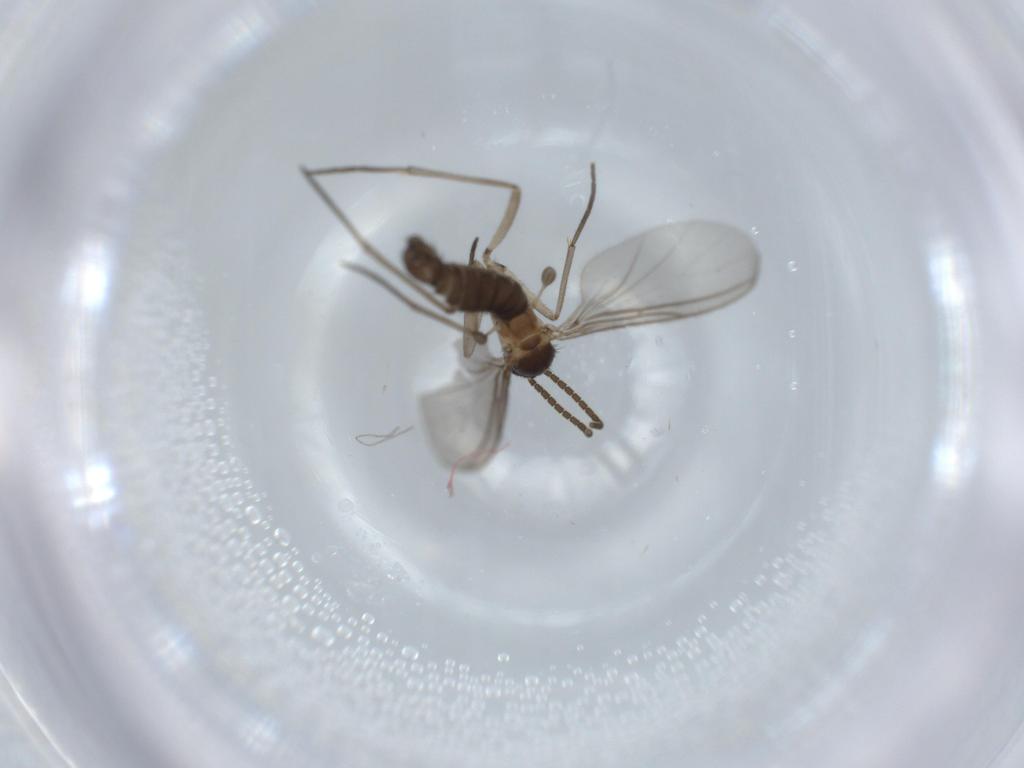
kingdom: Animalia
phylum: Arthropoda
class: Insecta
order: Diptera
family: Sciaridae
